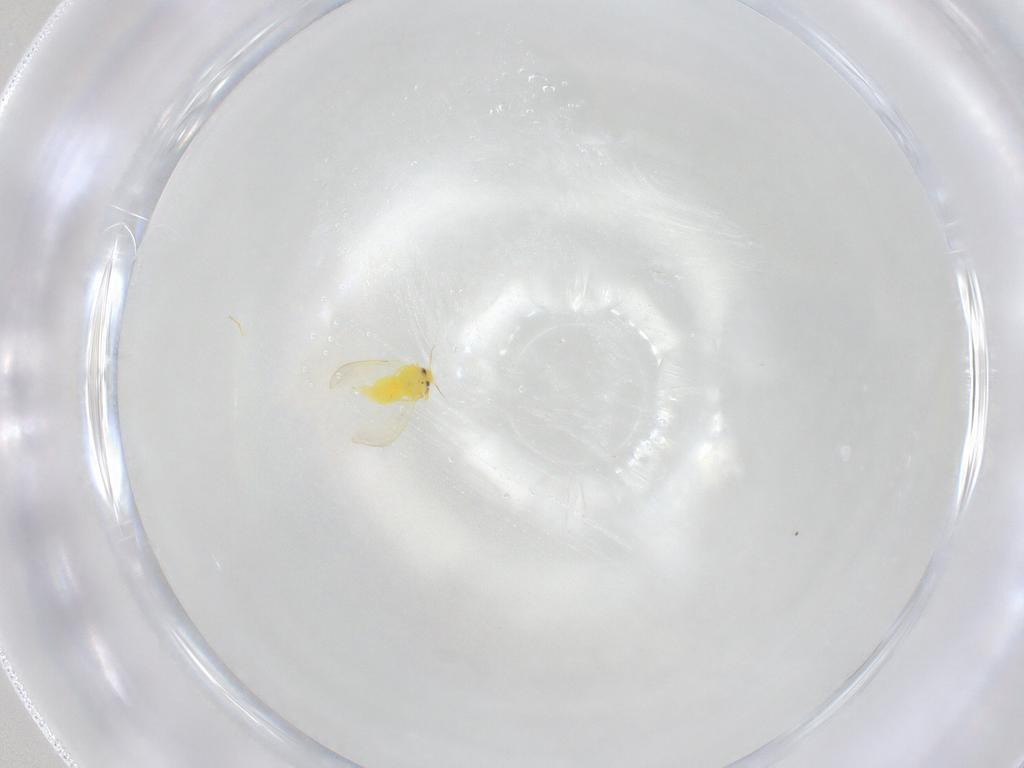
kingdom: Animalia
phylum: Arthropoda
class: Insecta
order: Hemiptera
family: Aleyrodidae
